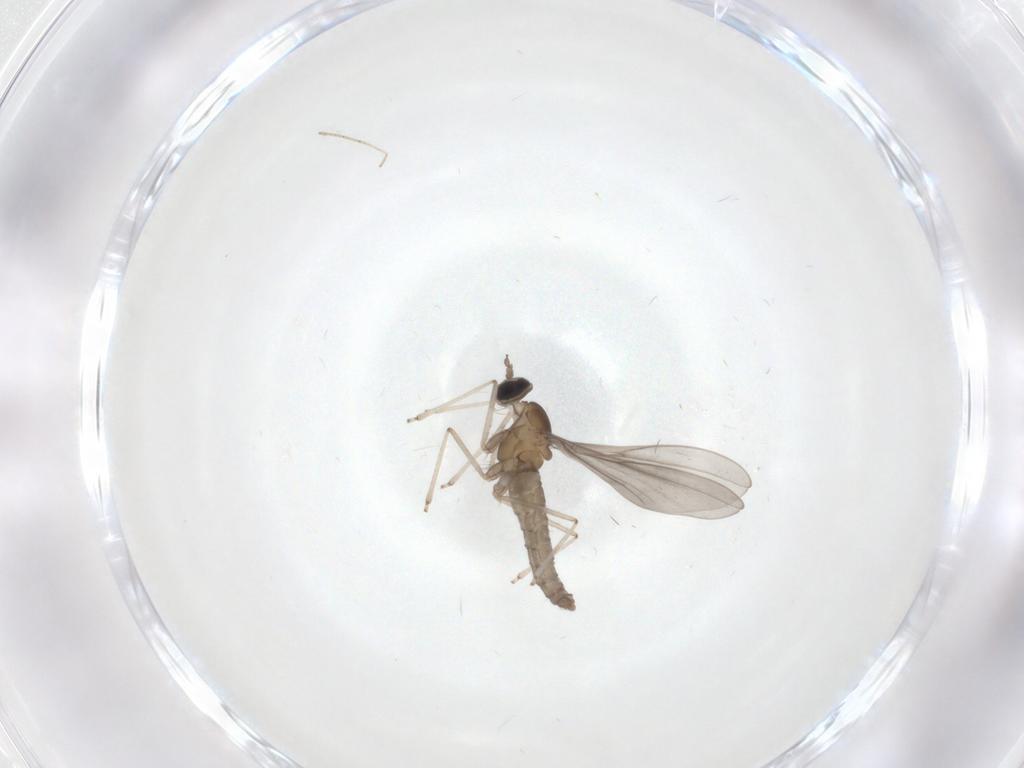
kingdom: Animalia
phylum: Arthropoda
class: Insecta
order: Diptera
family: Cecidomyiidae
